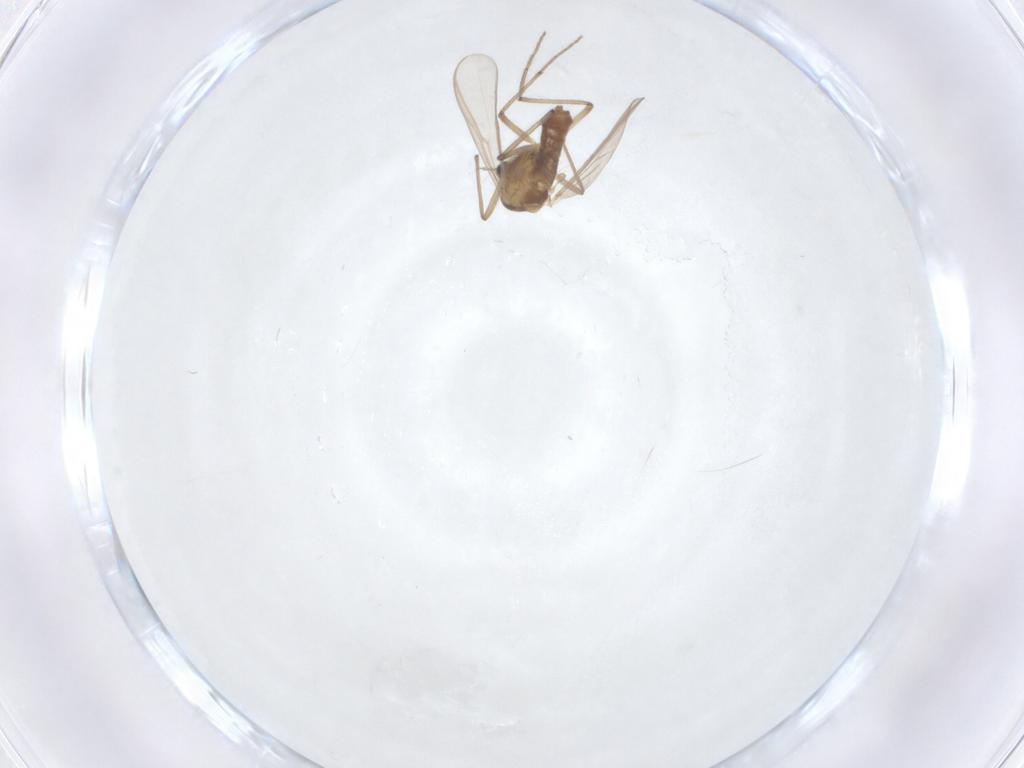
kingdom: Animalia
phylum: Arthropoda
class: Insecta
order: Diptera
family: Chironomidae
